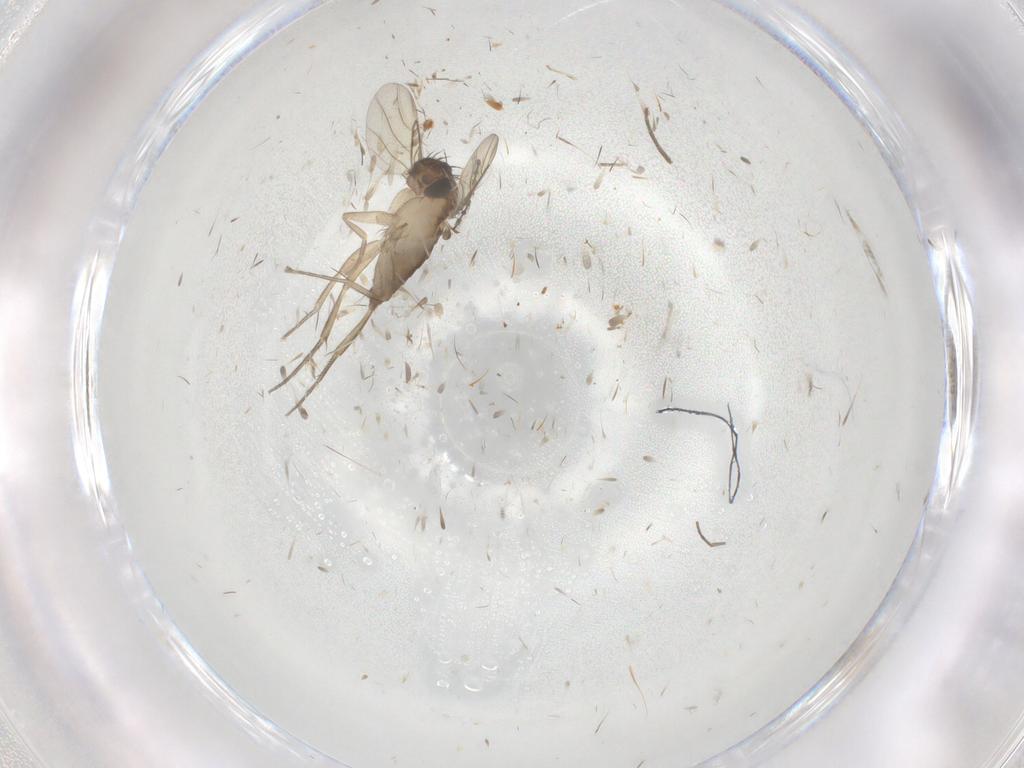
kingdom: Animalia
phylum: Arthropoda
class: Insecta
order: Diptera
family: Phoridae
